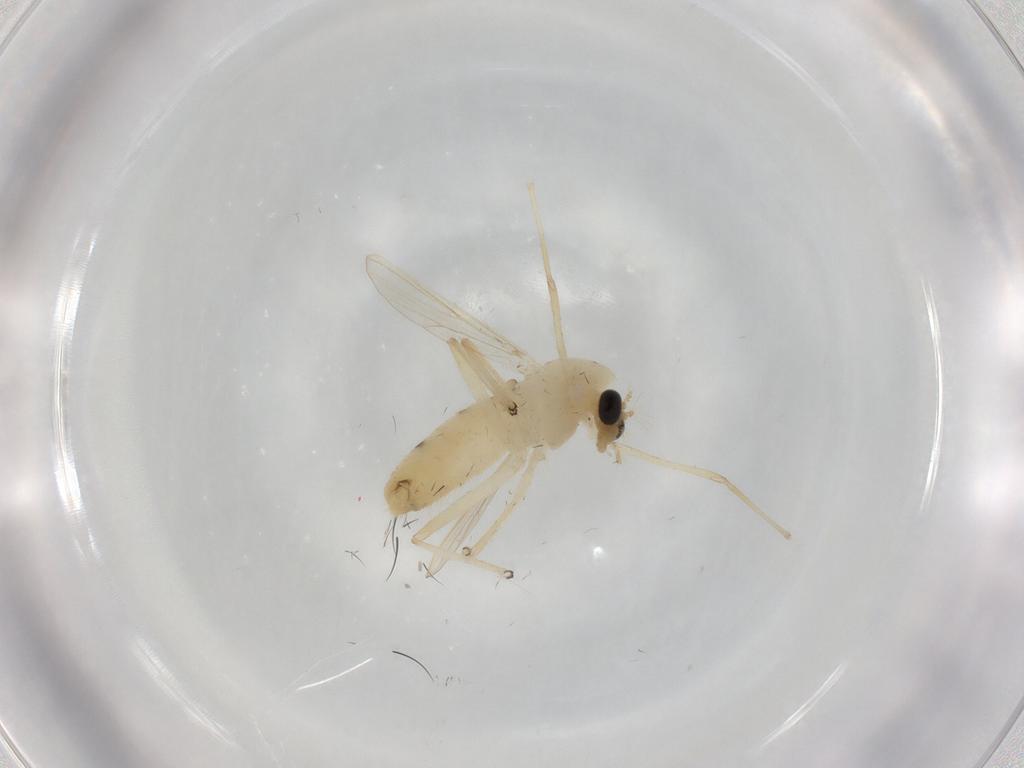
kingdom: Animalia
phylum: Arthropoda
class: Insecta
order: Diptera
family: Chironomidae
